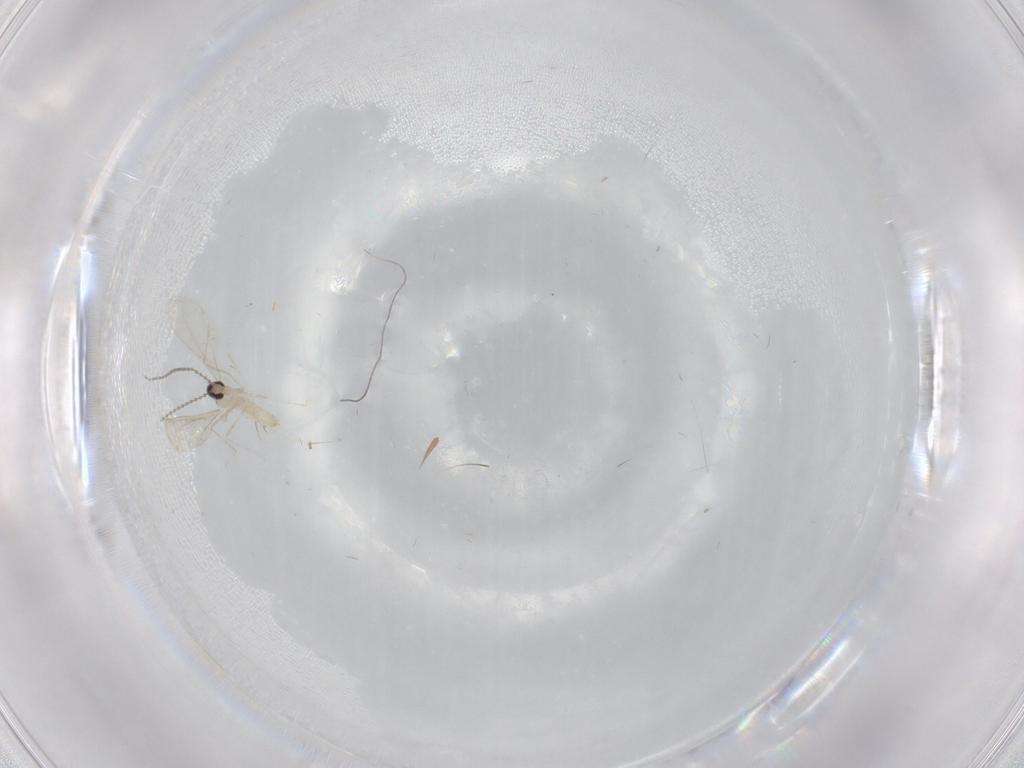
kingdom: Animalia
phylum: Arthropoda
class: Insecta
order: Diptera
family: Cecidomyiidae
